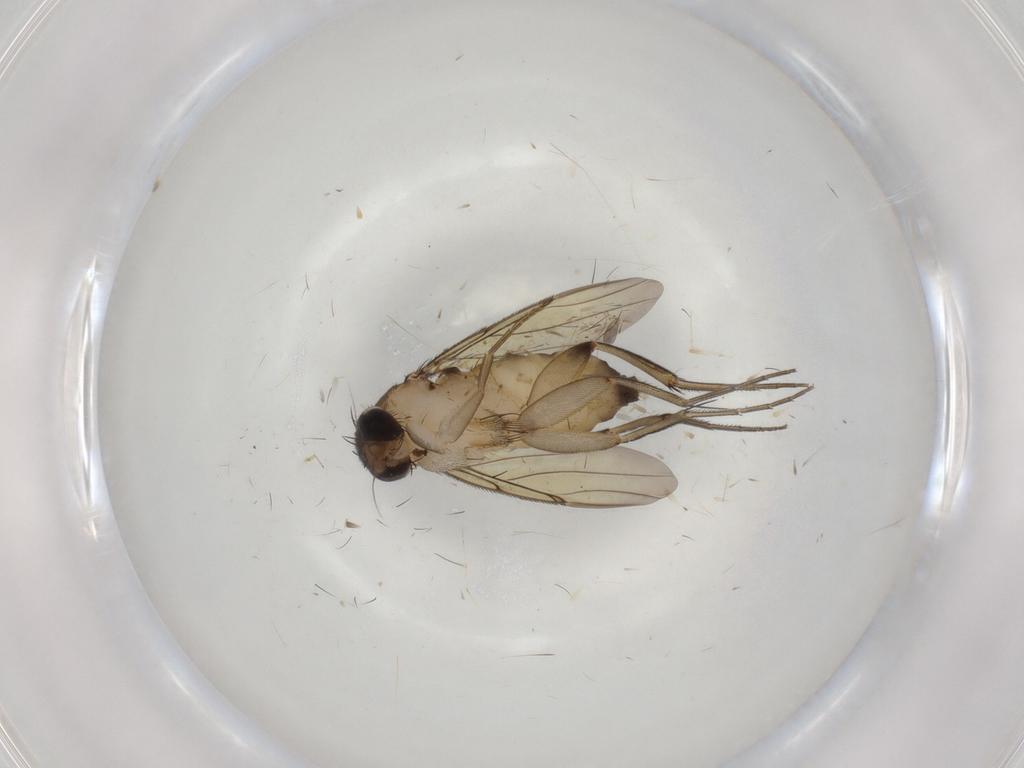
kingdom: Animalia
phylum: Arthropoda
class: Insecta
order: Diptera
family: Phoridae
